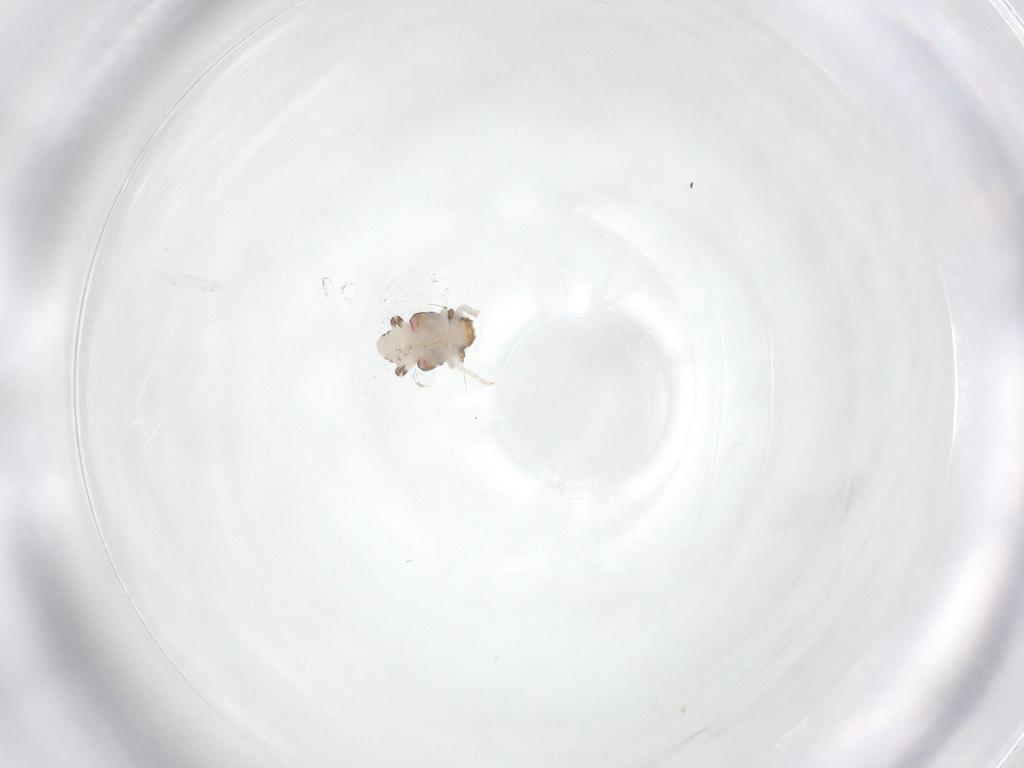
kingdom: Animalia
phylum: Arthropoda
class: Insecta
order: Hemiptera
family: Nogodinidae
